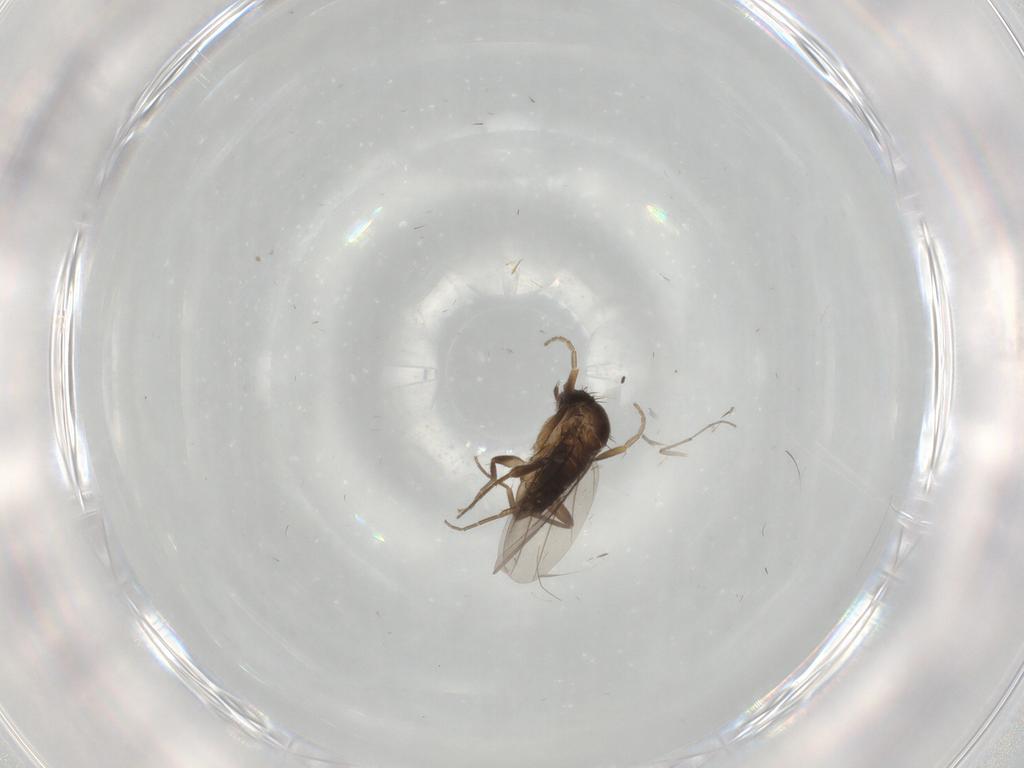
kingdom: Animalia
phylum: Arthropoda
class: Insecta
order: Diptera
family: Phoridae
